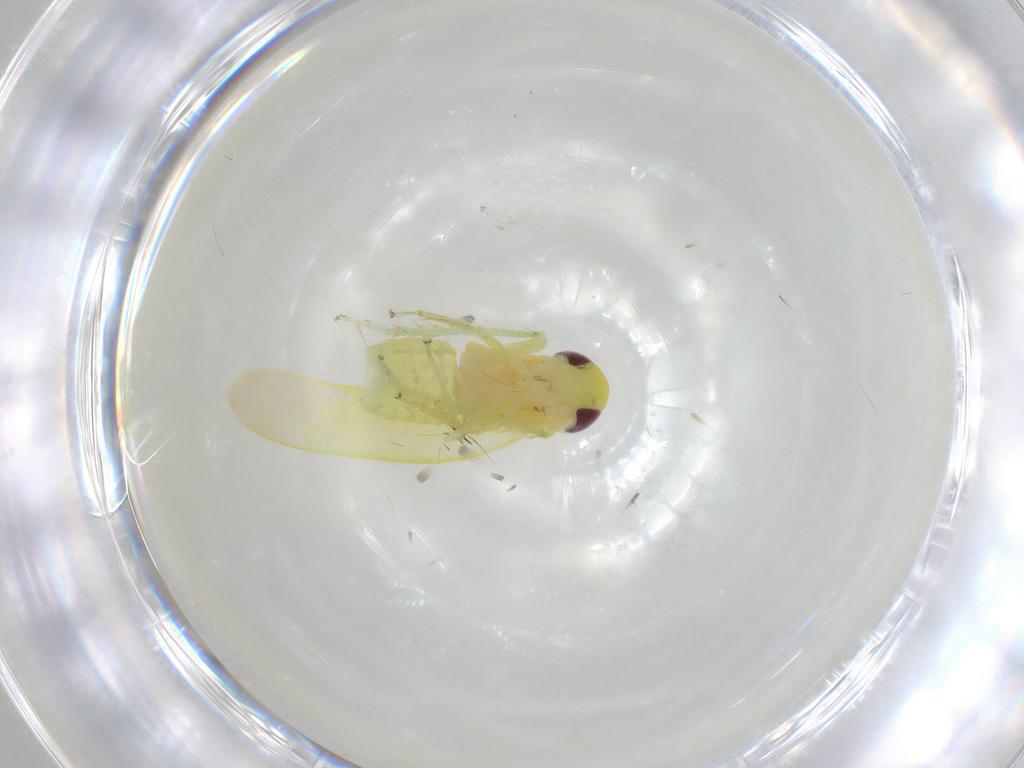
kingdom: Animalia
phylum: Arthropoda
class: Insecta
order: Hemiptera
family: Cicadellidae
